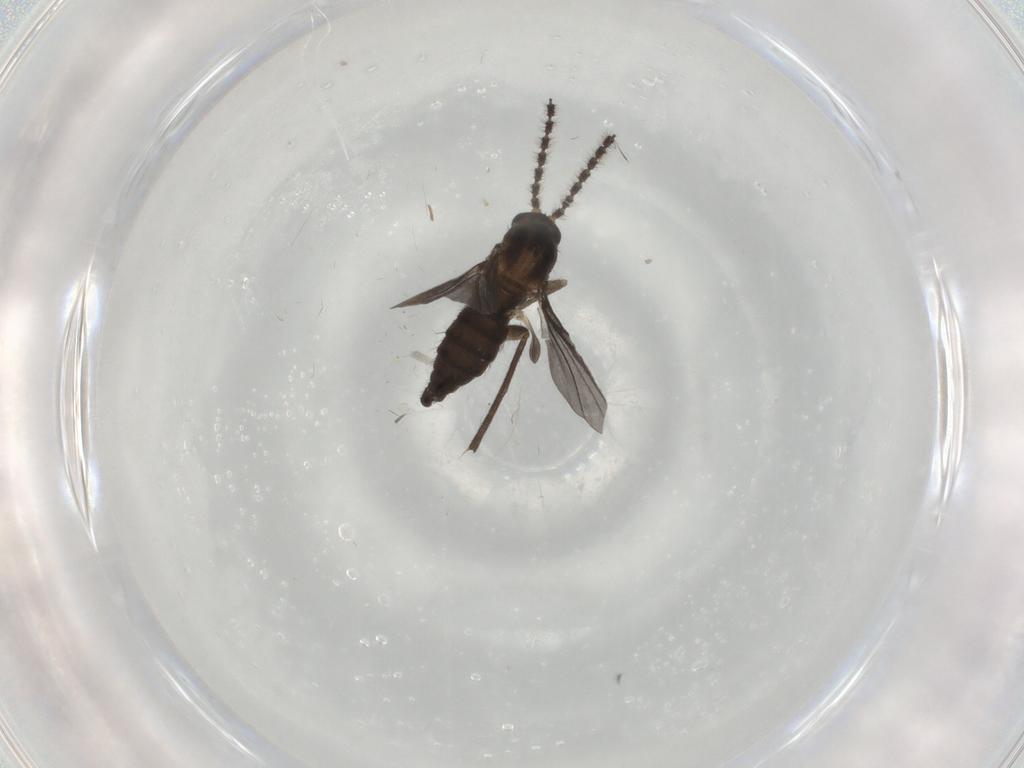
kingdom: Animalia
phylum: Arthropoda
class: Insecta
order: Diptera
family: Sciaridae
